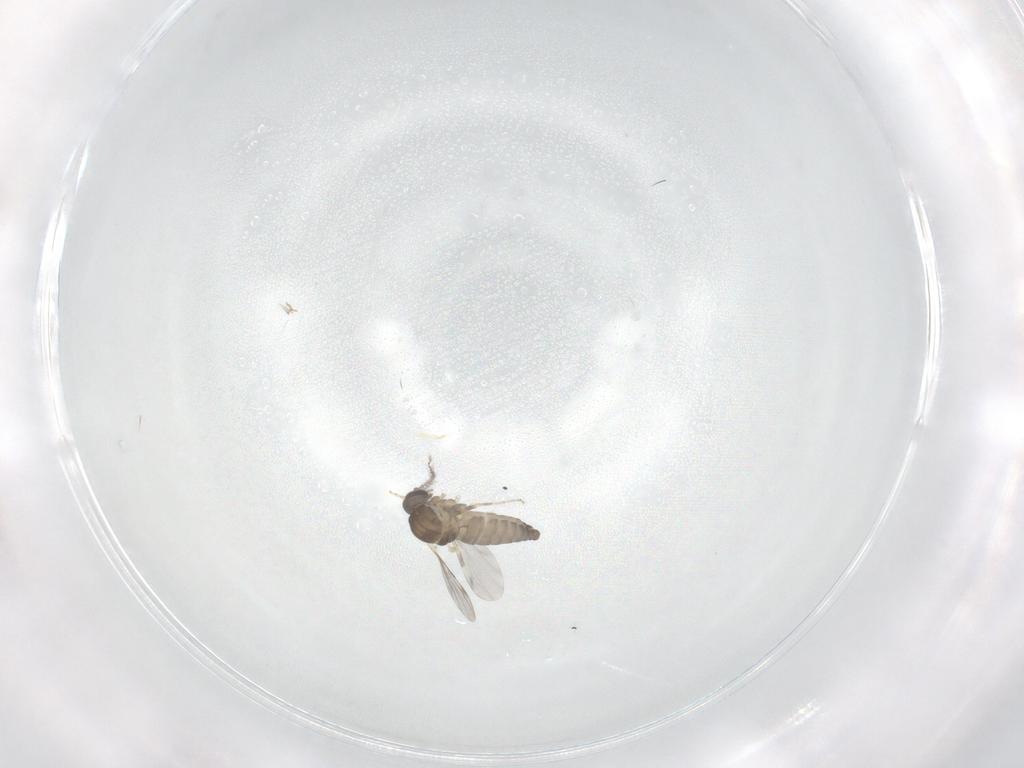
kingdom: Animalia
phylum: Arthropoda
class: Insecta
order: Diptera
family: Ceratopogonidae
